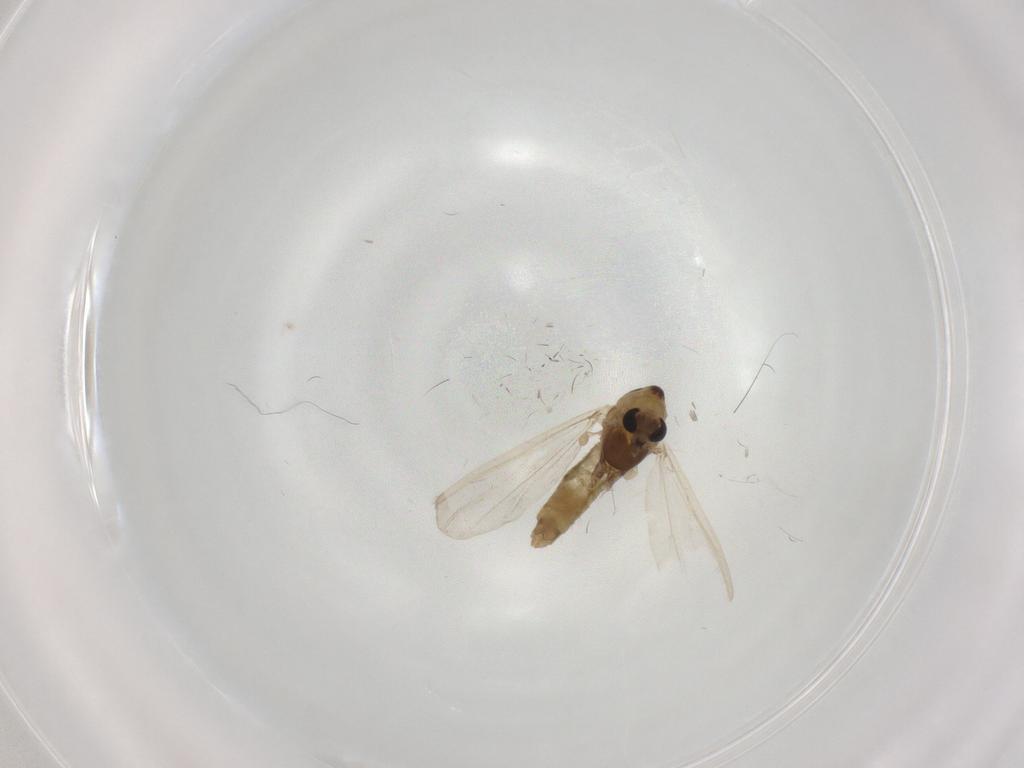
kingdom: Animalia
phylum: Arthropoda
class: Insecta
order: Diptera
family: Chironomidae
